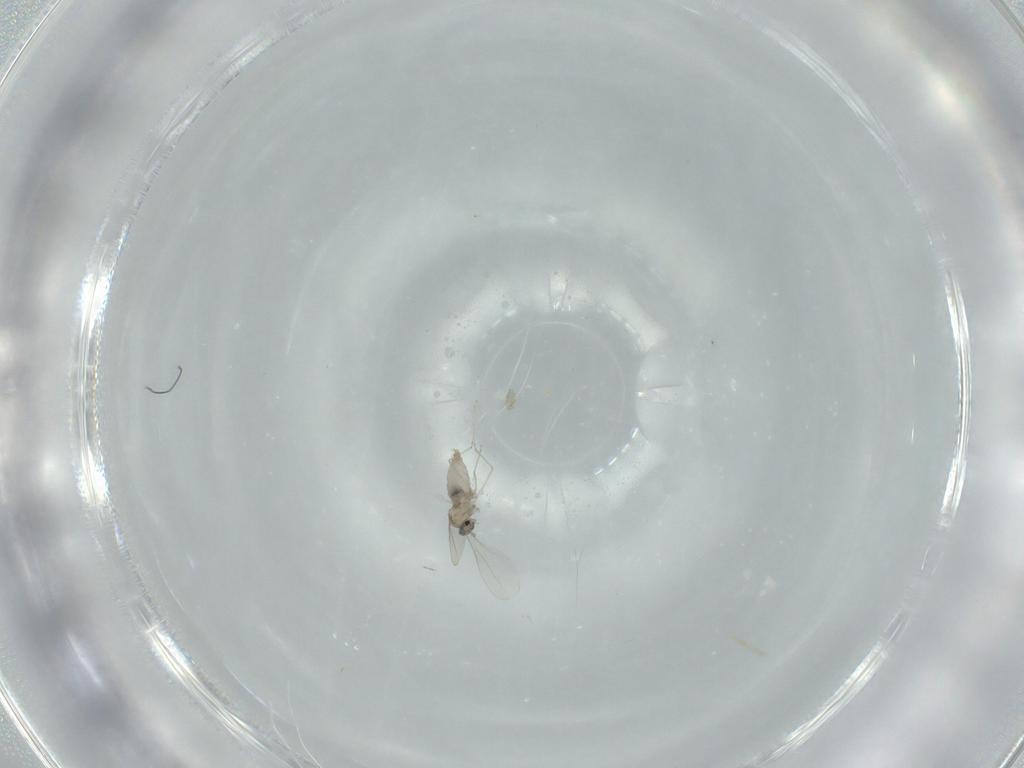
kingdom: Animalia
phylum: Arthropoda
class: Insecta
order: Diptera
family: Cecidomyiidae
